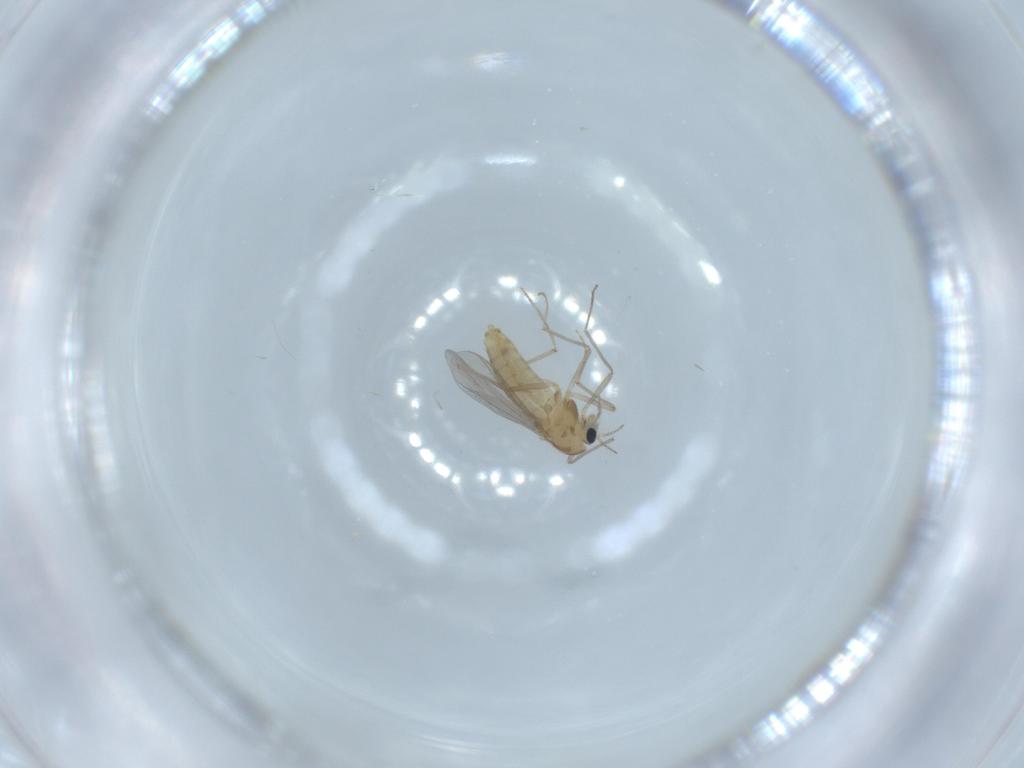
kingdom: Animalia
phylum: Arthropoda
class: Insecta
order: Diptera
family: Chironomidae
